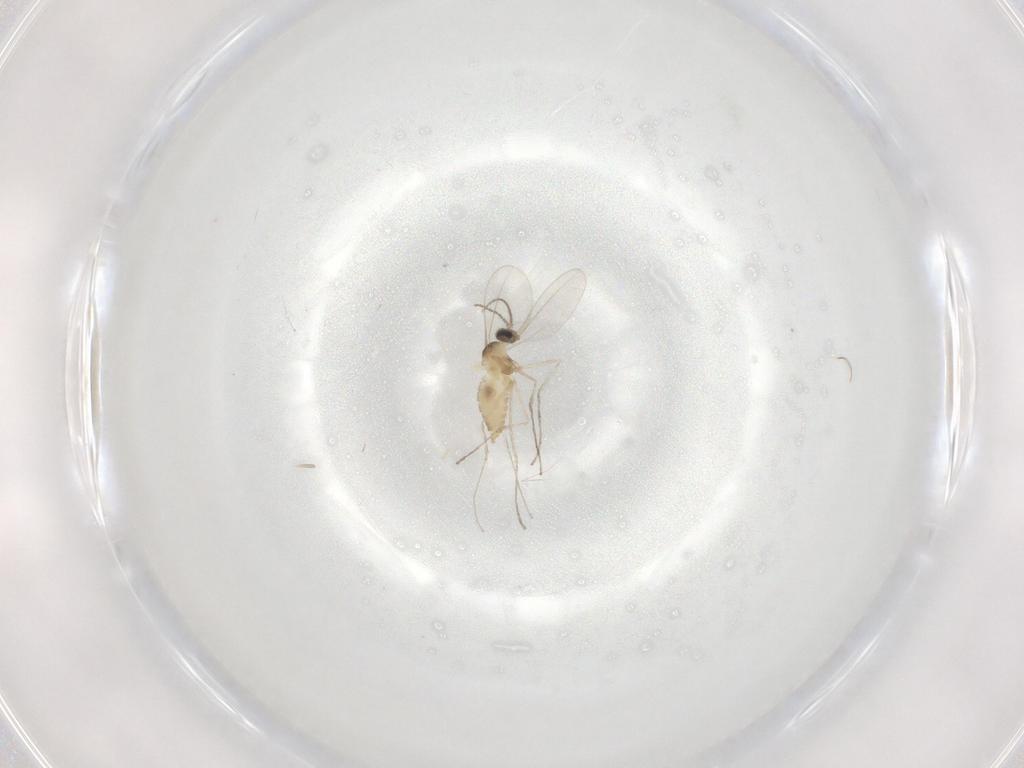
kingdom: Animalia
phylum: Arthropoda
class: Insecta
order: Diptera
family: Cecidomyiidae
